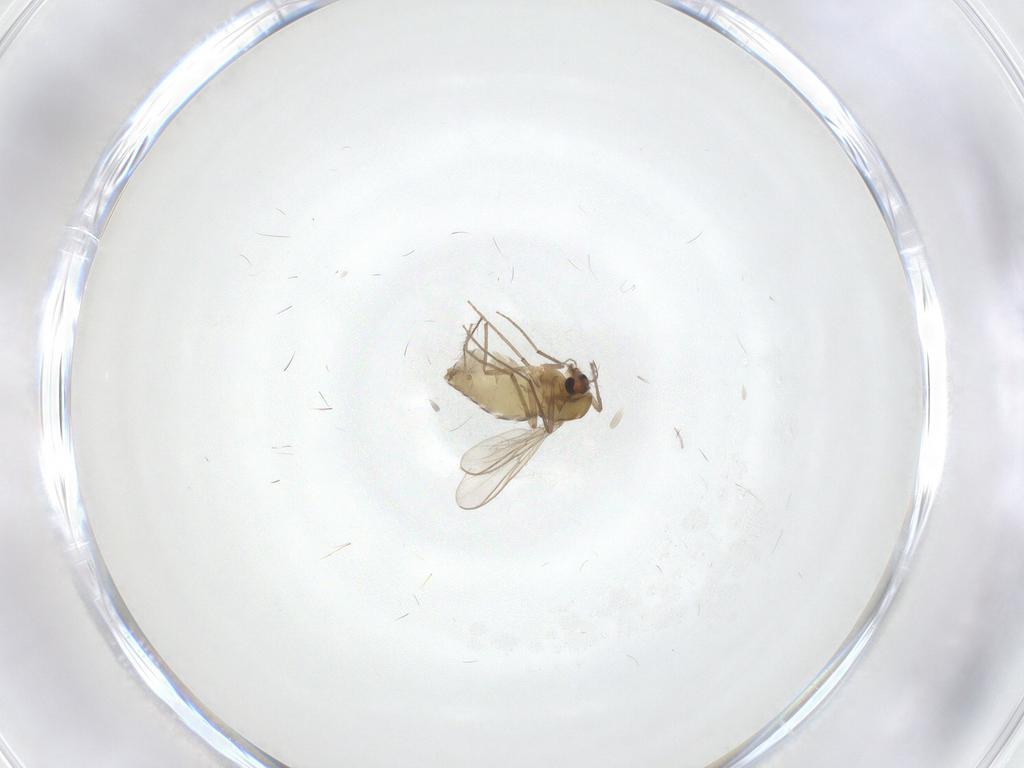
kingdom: Animalia
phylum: Arthropoda
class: Insecta
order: Diptera
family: Chironomidae
